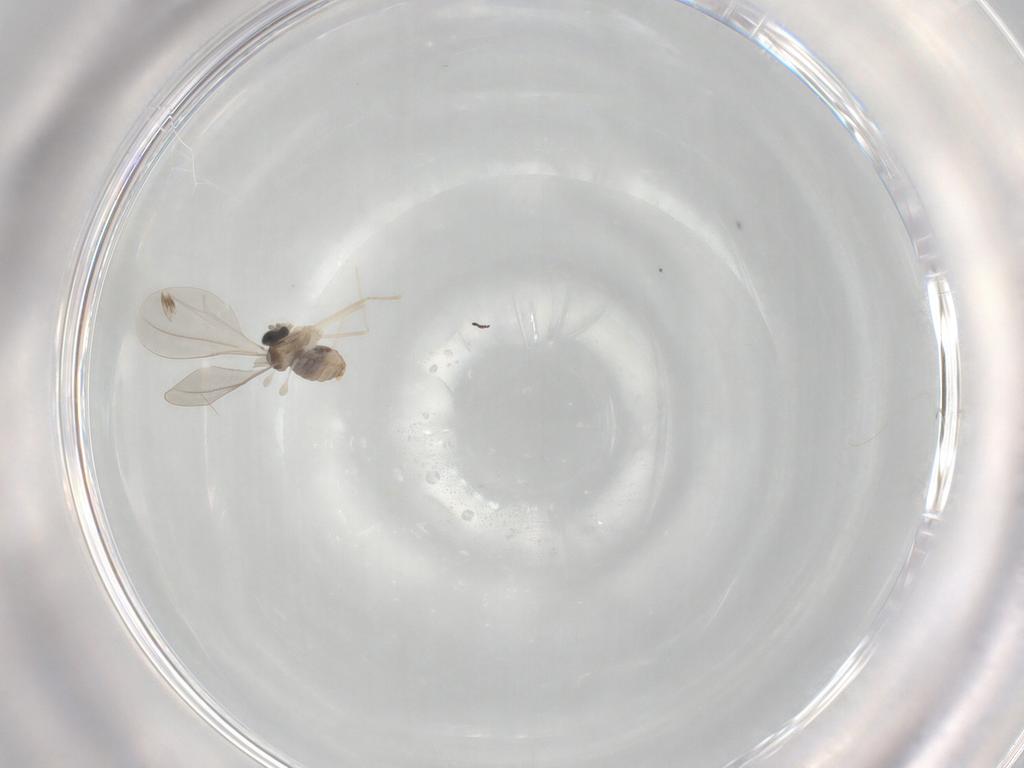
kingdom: Animalia
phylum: Arthropoda
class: Insecta
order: Diptera
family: Cecidomyiidae
